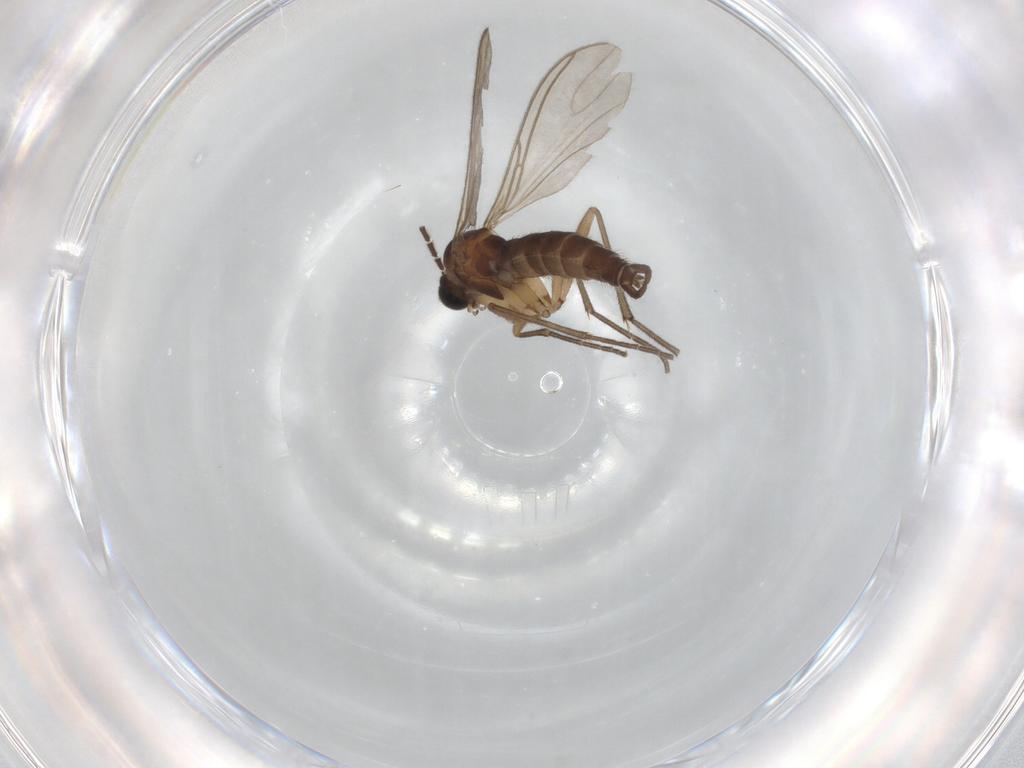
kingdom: Animalia
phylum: Arthropoda
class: Insecta
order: Diptera
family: Sciaridae
